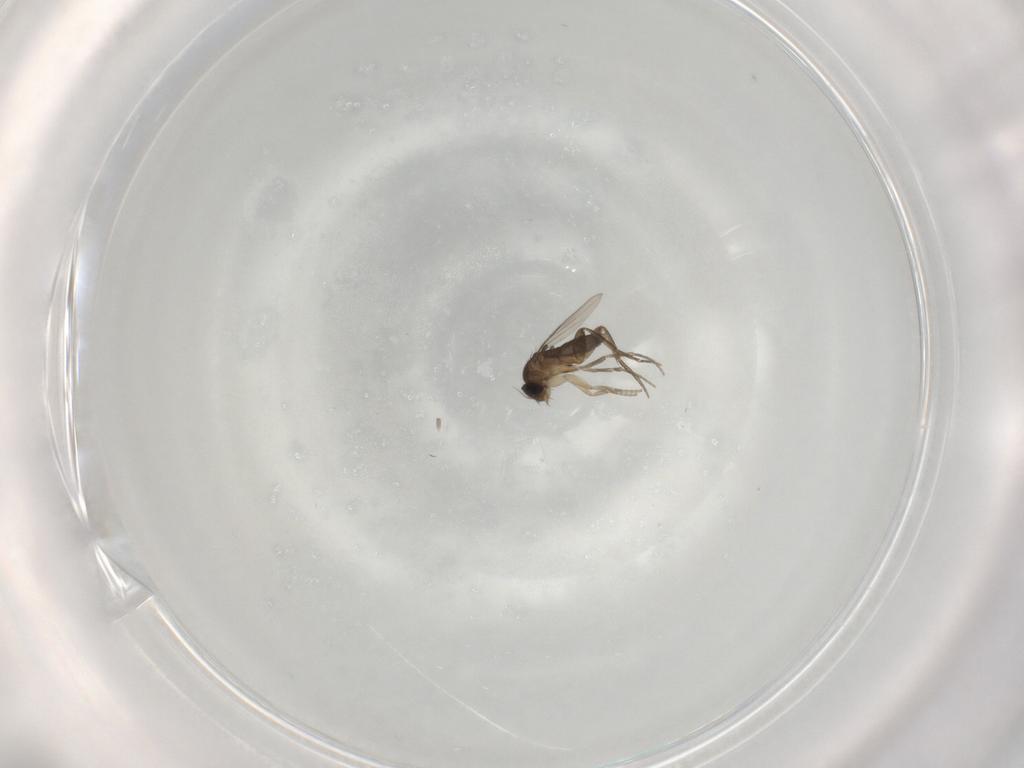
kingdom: Animalia
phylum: Arthropoda
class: Insecta
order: Diptera
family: Phoridae
